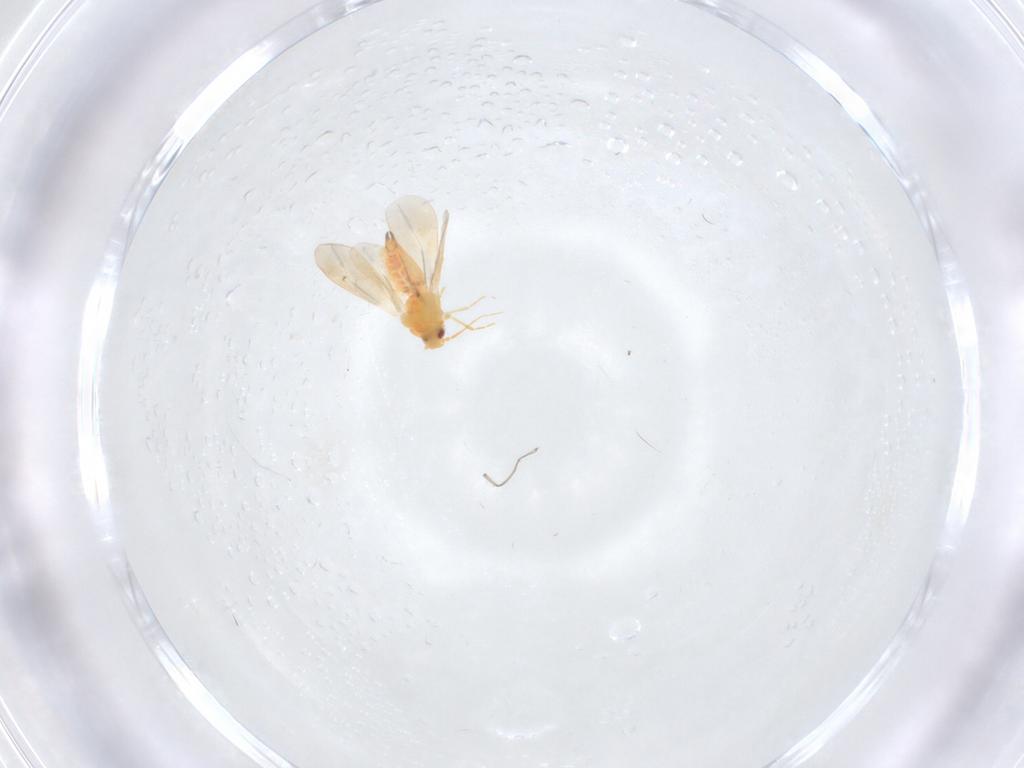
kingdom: Animalia
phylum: Arthropoda
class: Insecta
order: Hemiptera
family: Aleyrodidae
